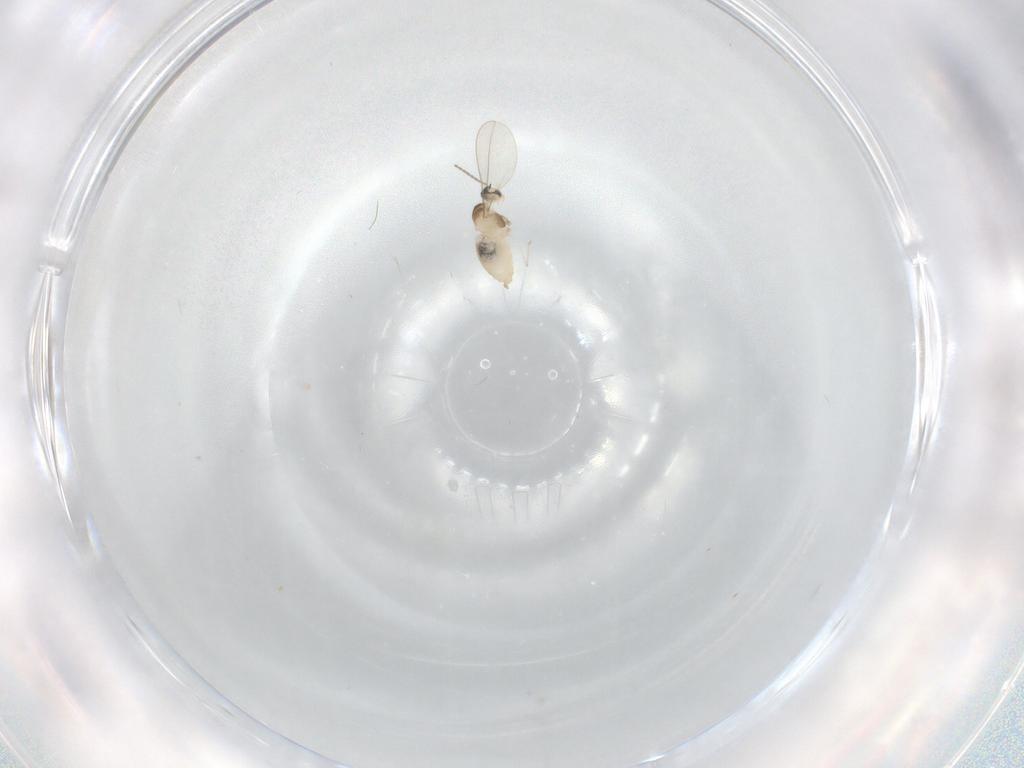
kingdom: Animalia
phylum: Arthropoda
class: Insecta
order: Diptera
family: Cecidomyiidae
